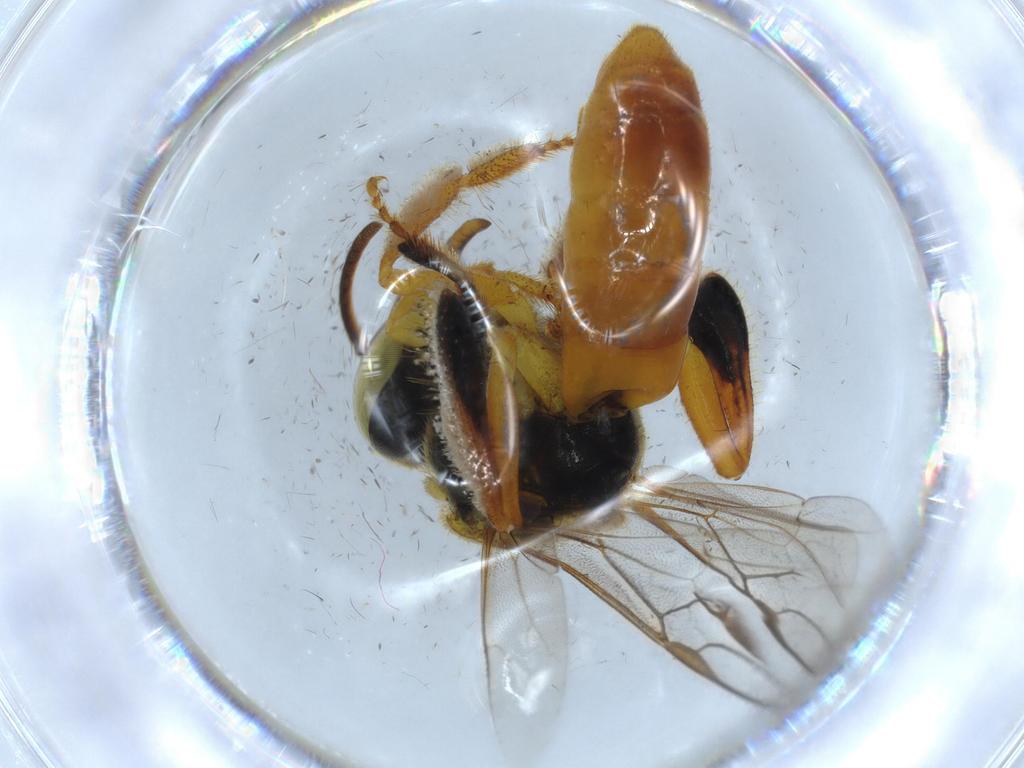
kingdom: Animalia
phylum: Arthropoda
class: Insecta
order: Hymenoptera
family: Apidae
